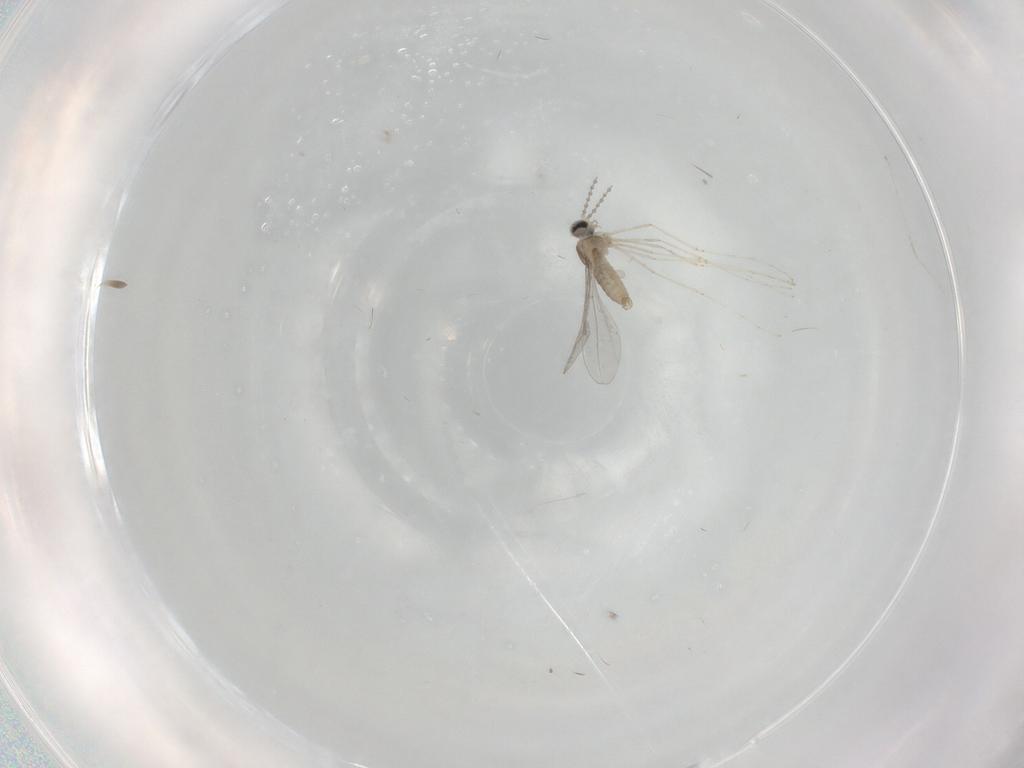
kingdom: Animalia
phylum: Arthropoda
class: Insecta
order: Diptera
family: Cecidomyiidae
